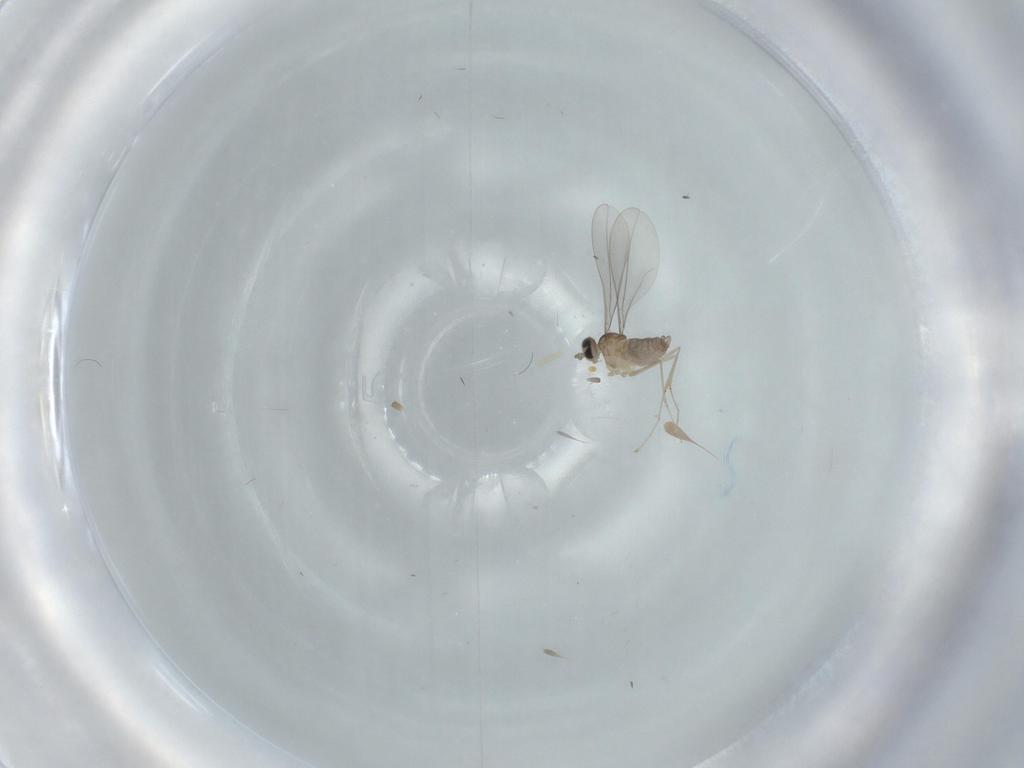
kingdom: Animalia
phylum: Arthropoda
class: Insecta
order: Diptera
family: Cecidomyiidae
